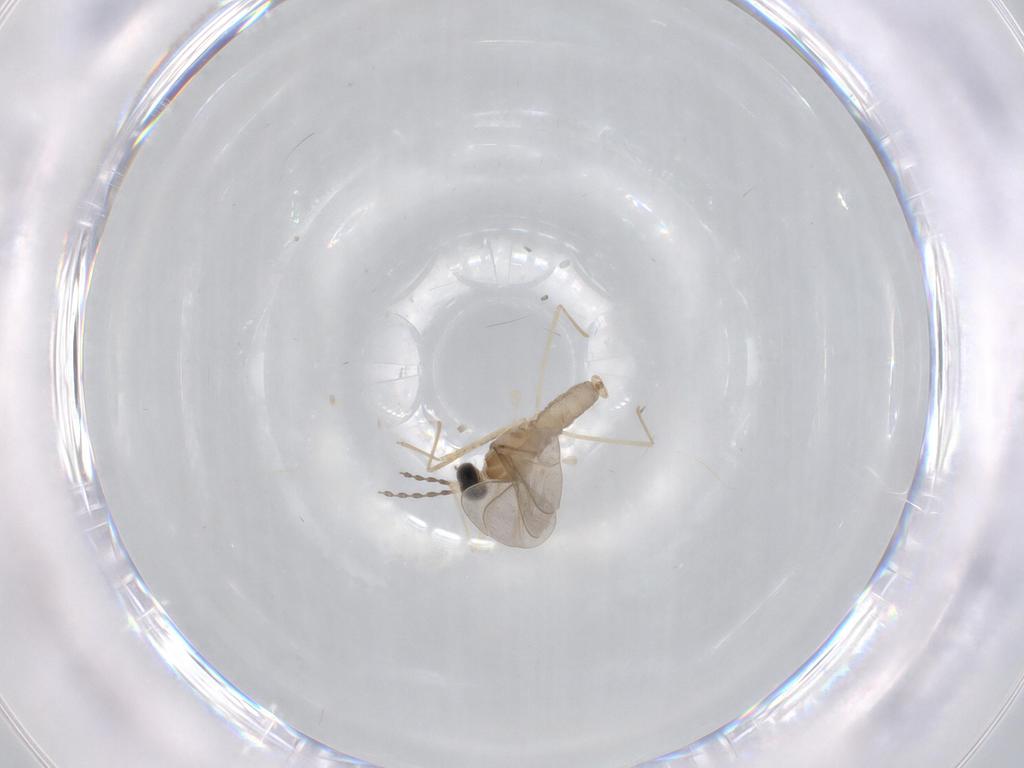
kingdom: Animalia
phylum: Arthropoda
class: Insecta
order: Diptera
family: Cecidomyiidae
